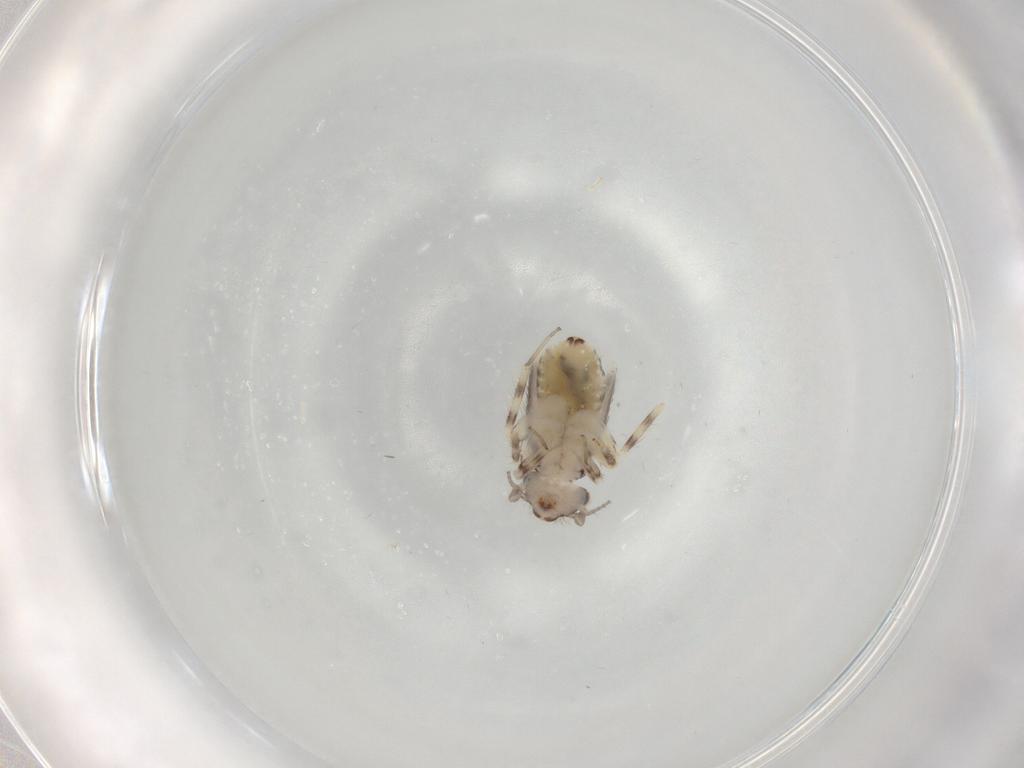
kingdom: Animalia
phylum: Arthropoda
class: Insecta
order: Psocodea
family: Lepidopsocidae
